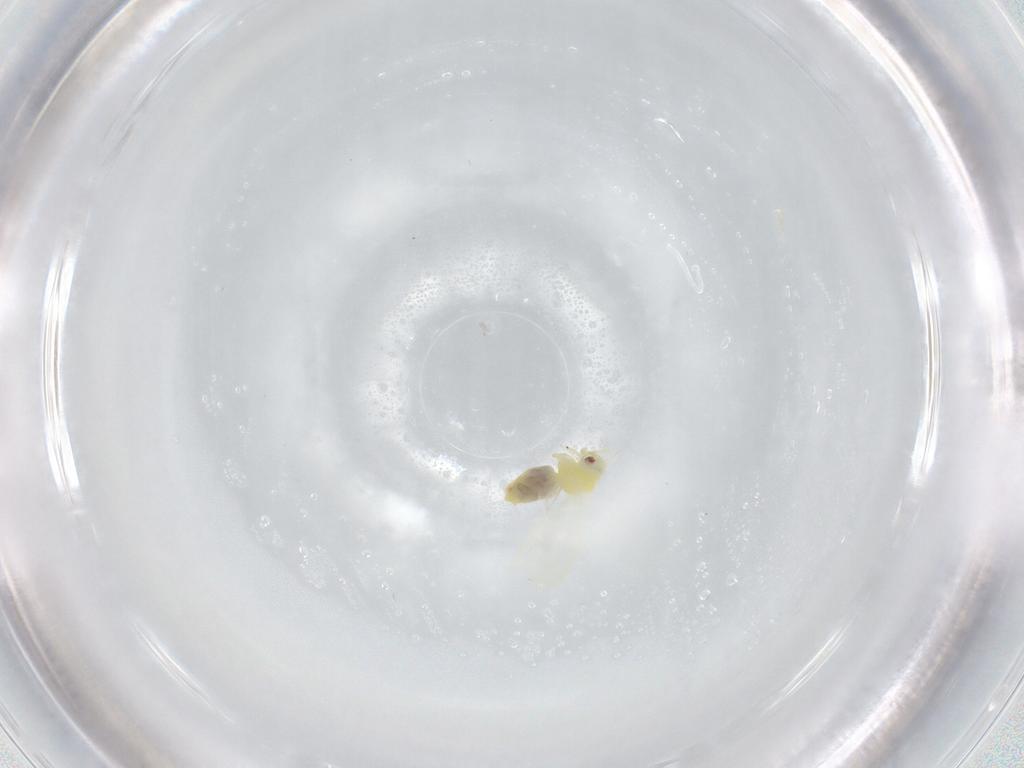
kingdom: Animalia
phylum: Arthropoda
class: Insecta
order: Hemiptera
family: Aleyrodidae
